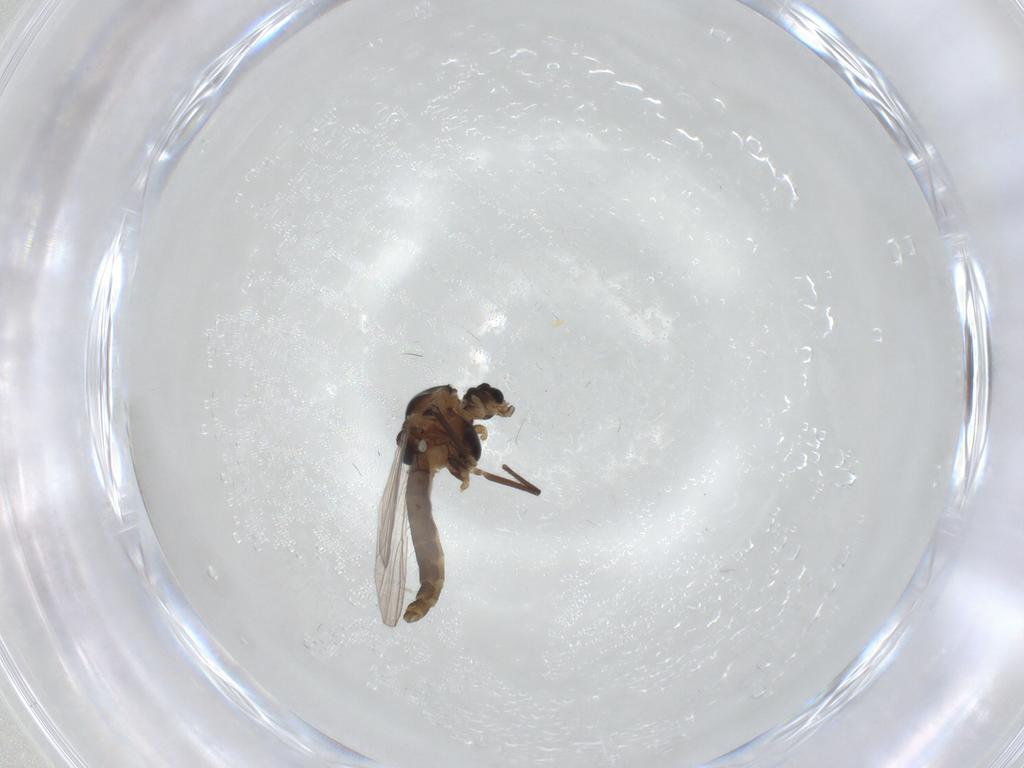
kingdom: Animalia
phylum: Arthropoda
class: Insecta
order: Diptera
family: Chironomidae
